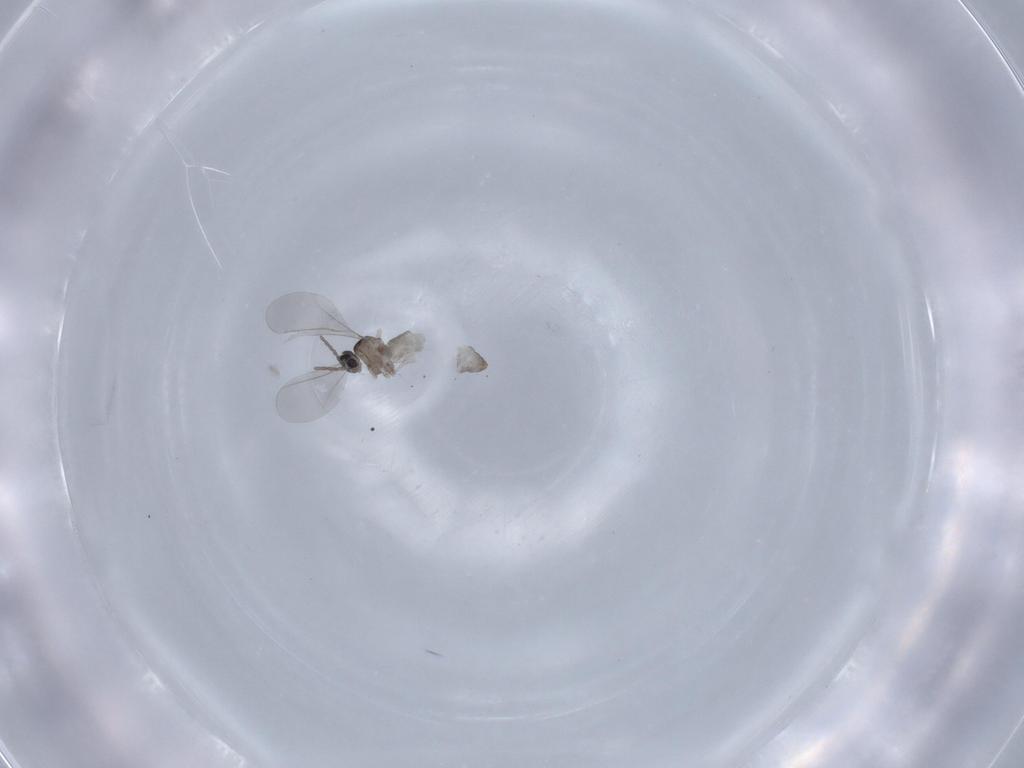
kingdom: Animalia
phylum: Arthropoda
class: Insecta
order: Diptera
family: Cecidomyiidae
